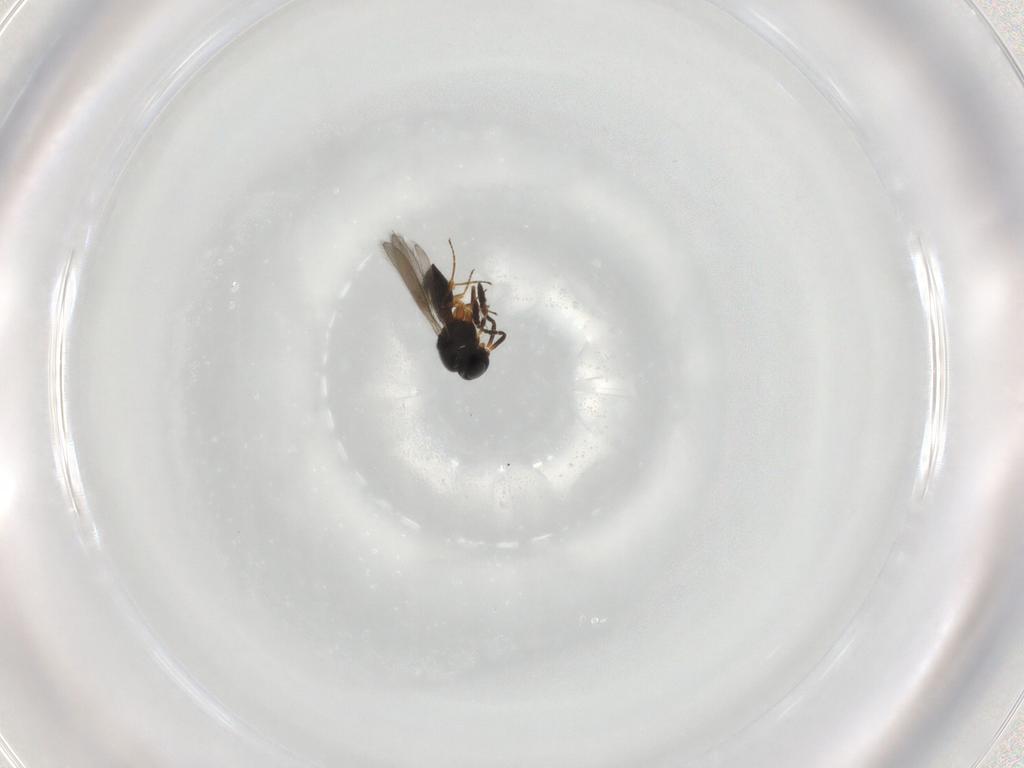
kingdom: Animalia
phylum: Arthropoda
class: Insecta
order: Hymenoptera
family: Scelionidae
